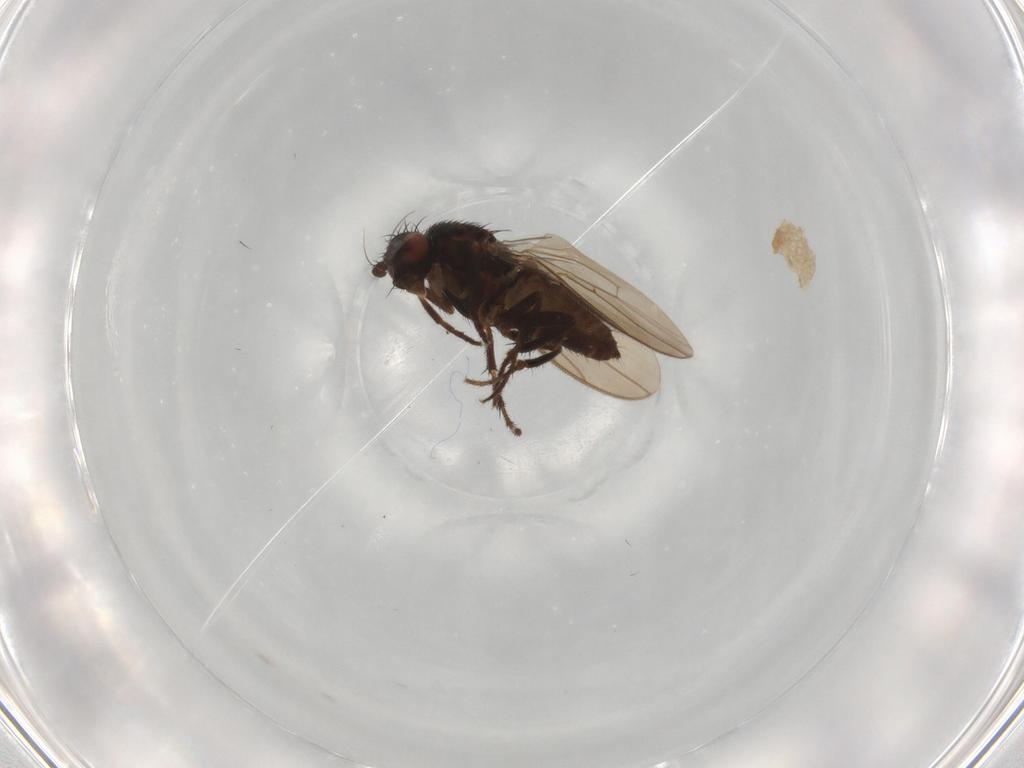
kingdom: Animalia
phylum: Arthropoda
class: Insecta
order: Diptera
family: Sphaeroceridae
